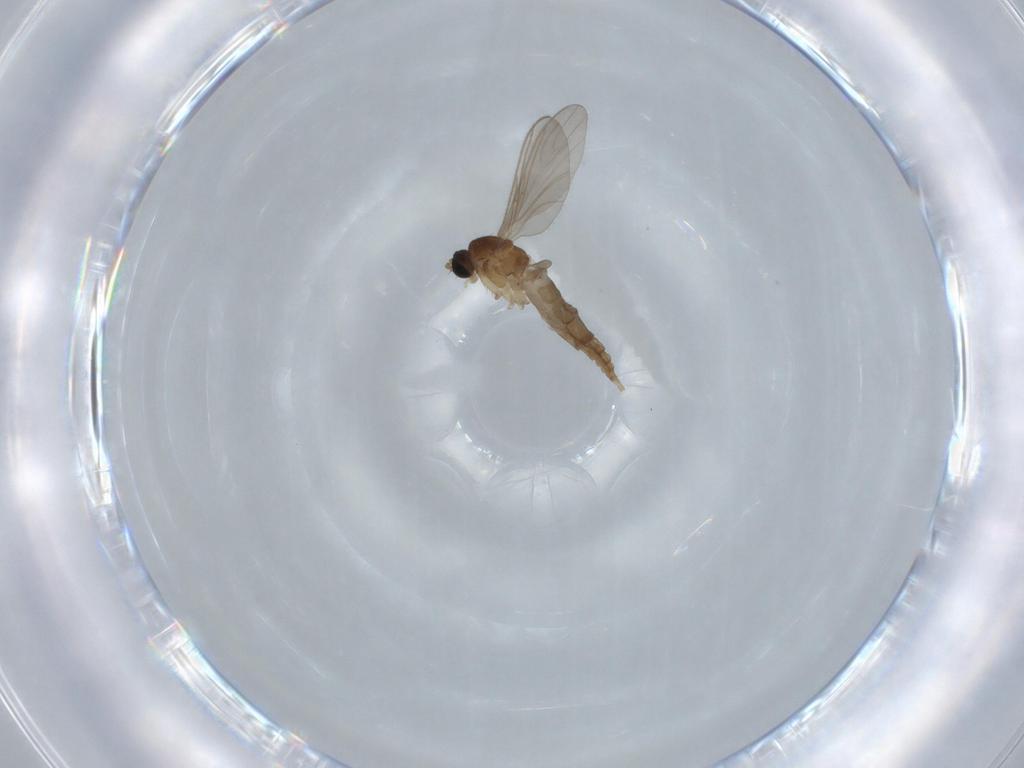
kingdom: Animalia
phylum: Arthropoda
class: Insecta
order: Diptera
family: Sciaridae
